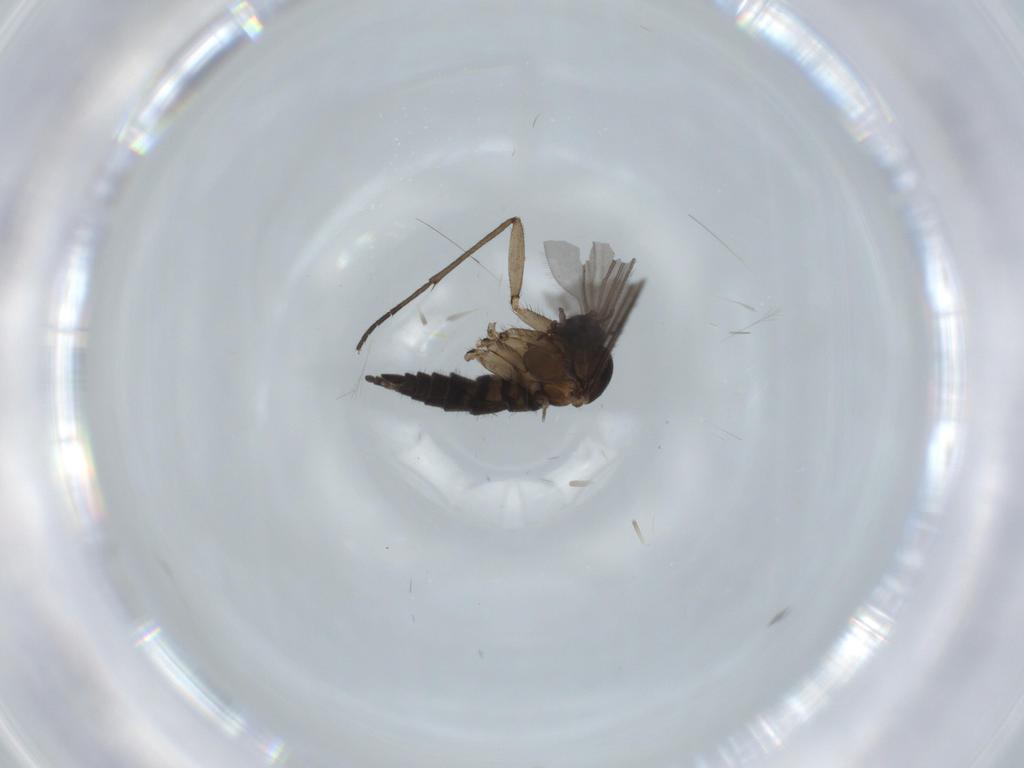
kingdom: Animalia
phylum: Arthropoda
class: Insecta
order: Diptera
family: Sciaridae
